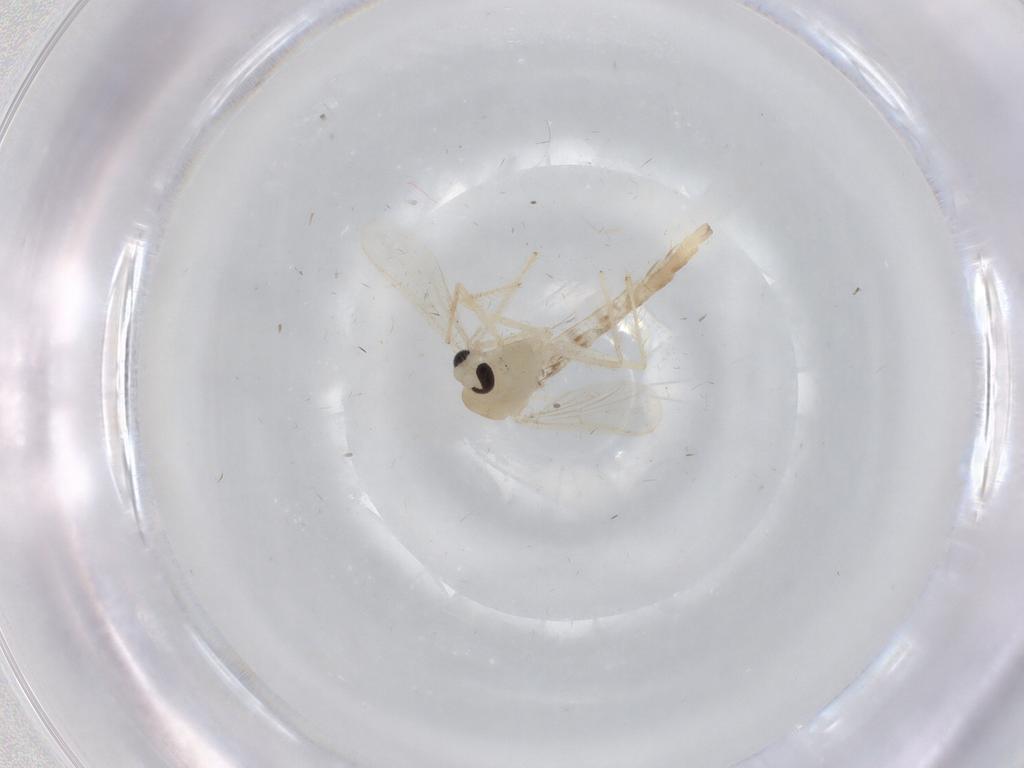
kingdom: Animalia
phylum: Arthropoda
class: Insecta
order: Diptera
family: Chironomidae
